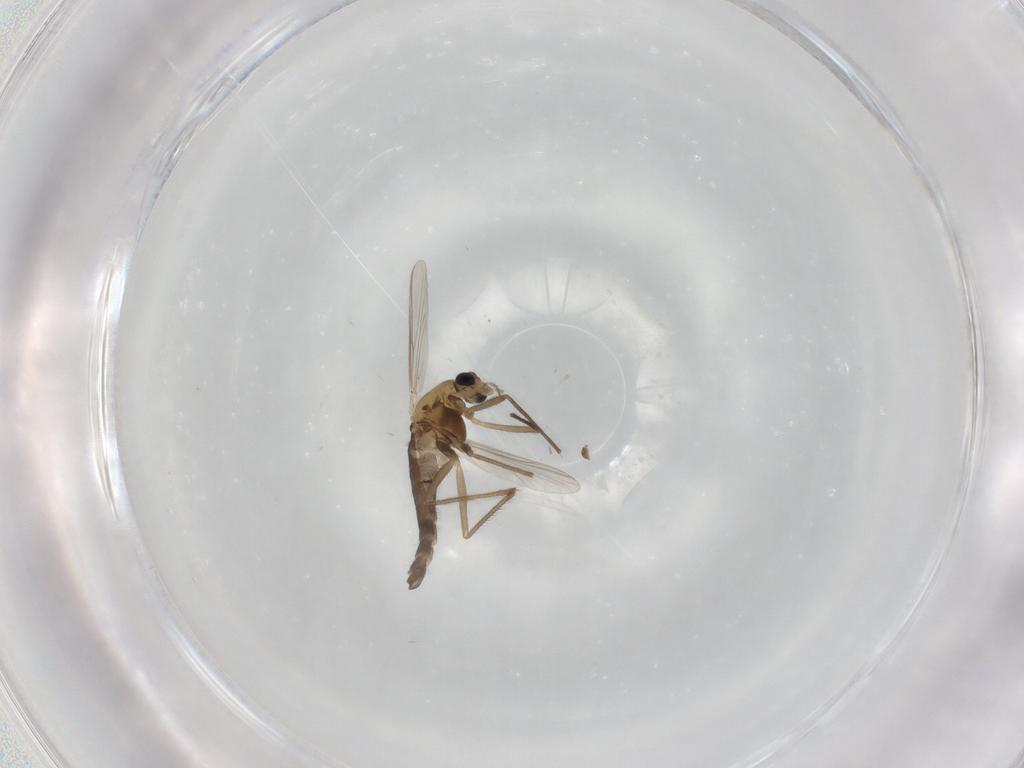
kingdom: Animalia
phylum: Arthropoda
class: Insecta
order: Diptera
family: Chironomidae
